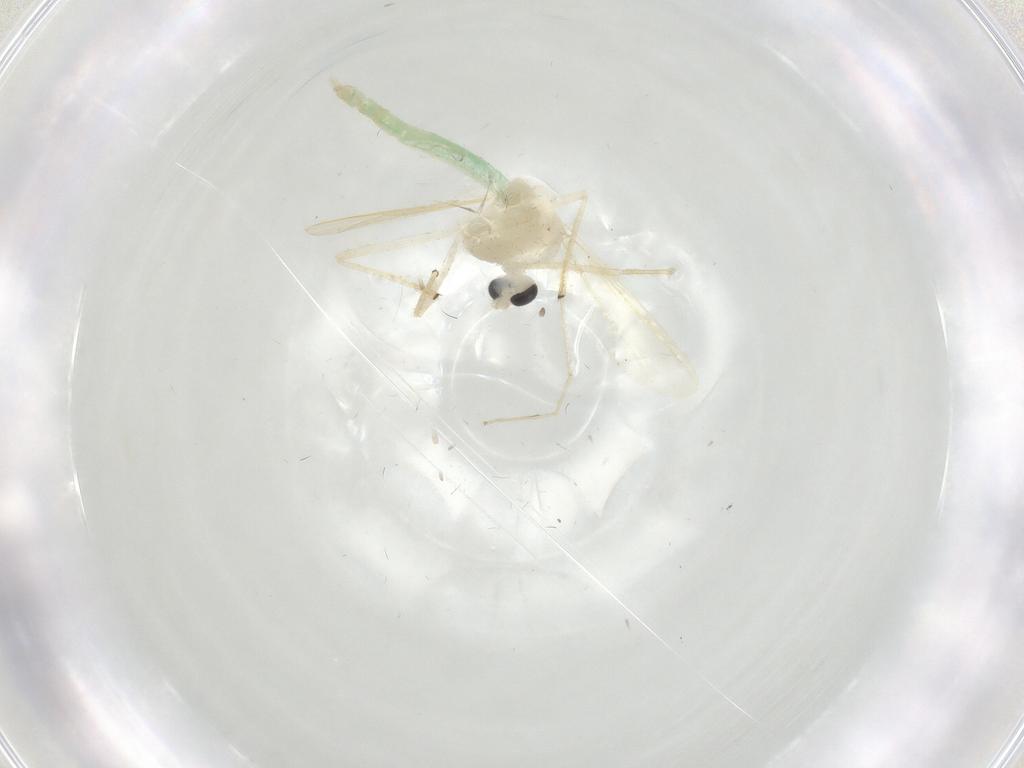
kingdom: Animalia
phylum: Arthropoda
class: Insecta
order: Diptera
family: Chironomidae
